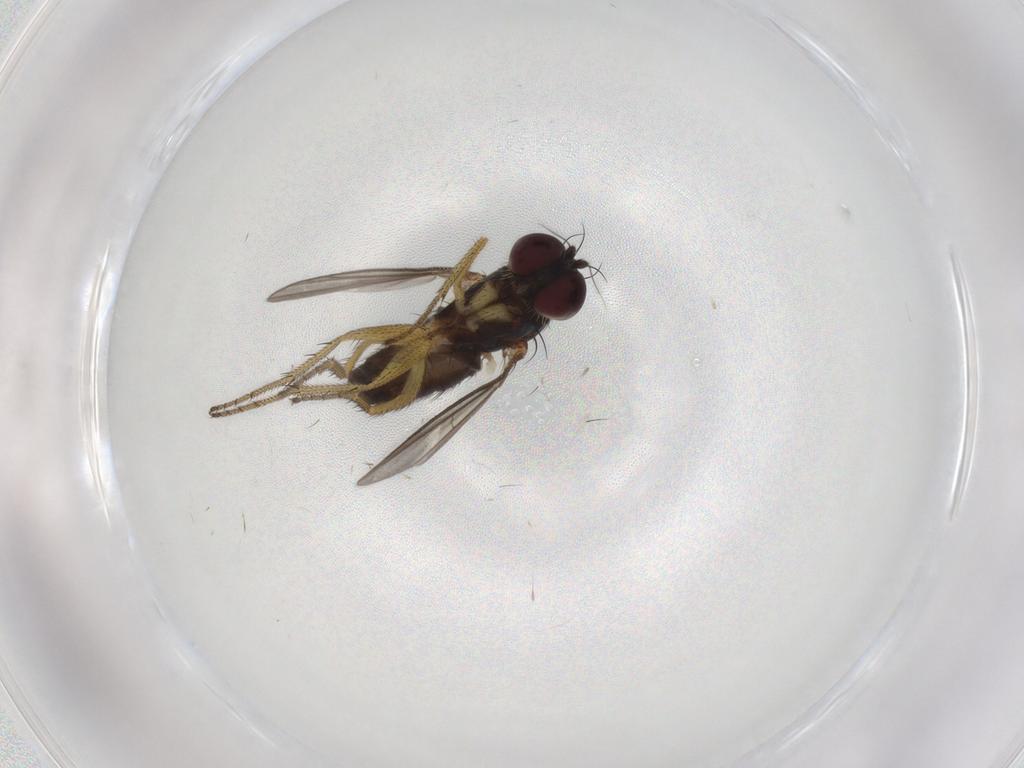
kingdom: Animalia
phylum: Arthropoda
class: Insecta
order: Diptera
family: Dolichopodidae
